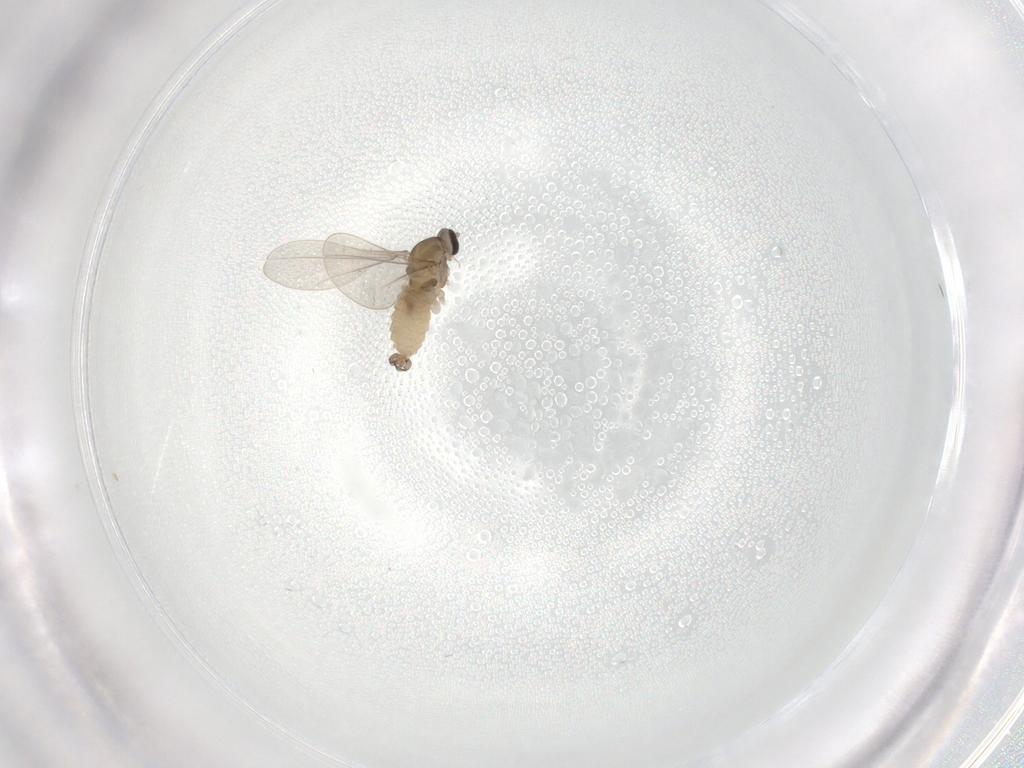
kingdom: Animalia
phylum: Arthropoda
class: Insecta
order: Diptera
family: Cecidomyiidae
